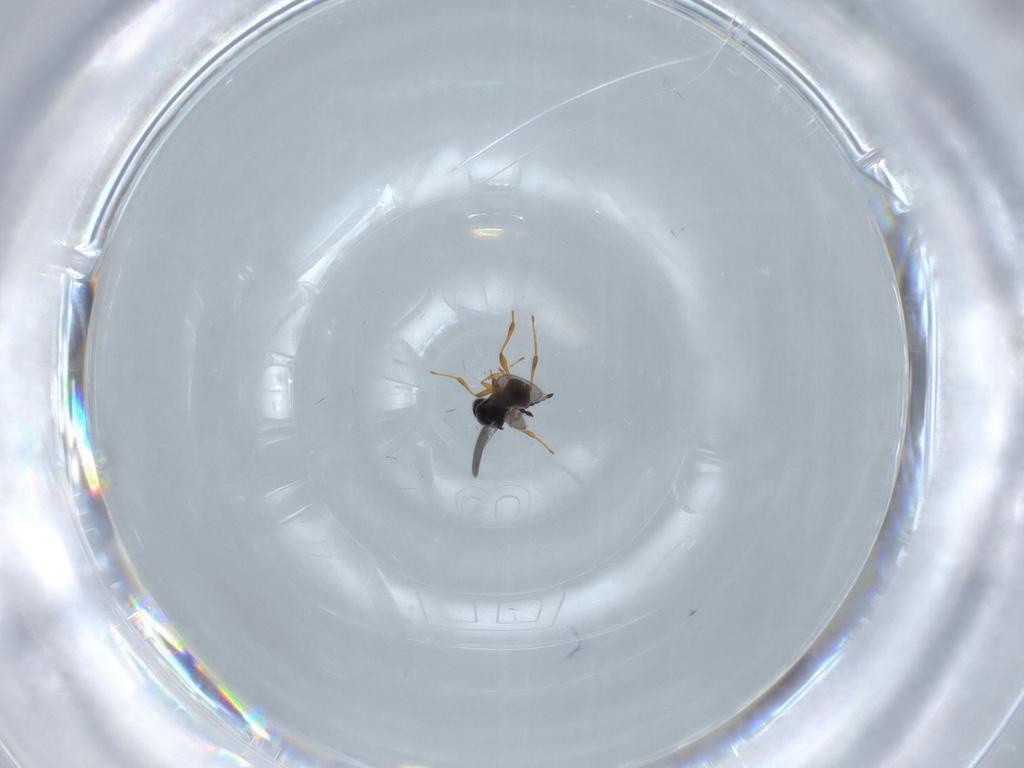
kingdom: Animalia
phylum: Arthropoda
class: Insecta
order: Hymenoptera
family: Platygastridae
